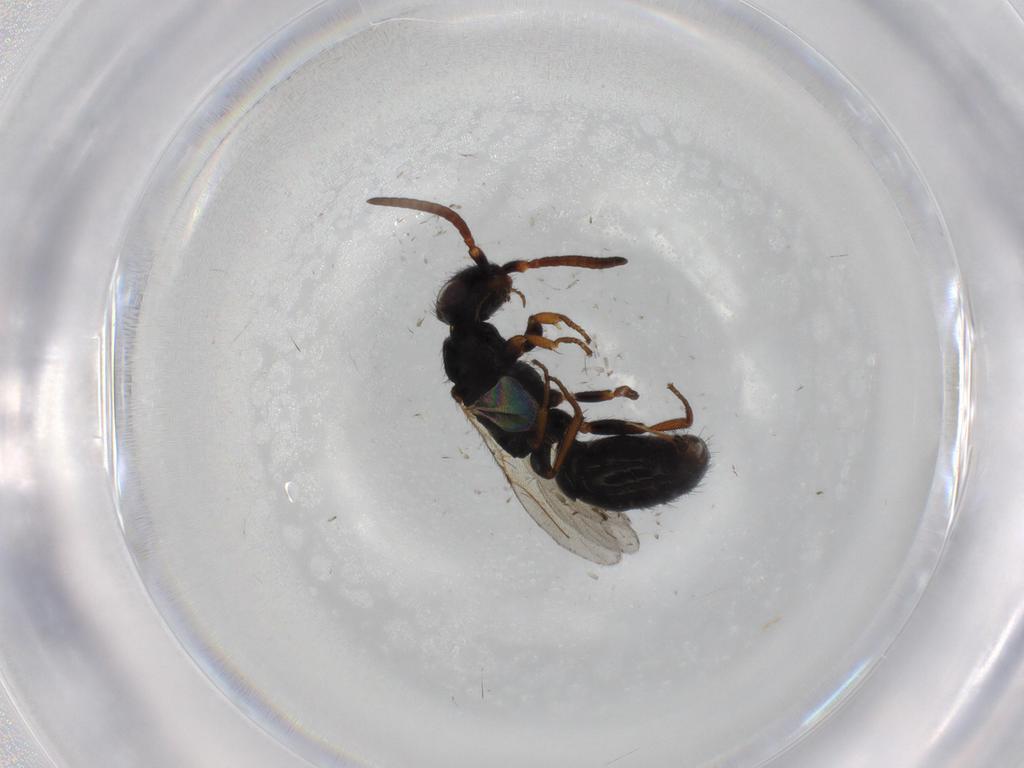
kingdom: Animalia
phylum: Arthropoda
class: Insecta
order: Hymenoptera
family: Bethylidae
